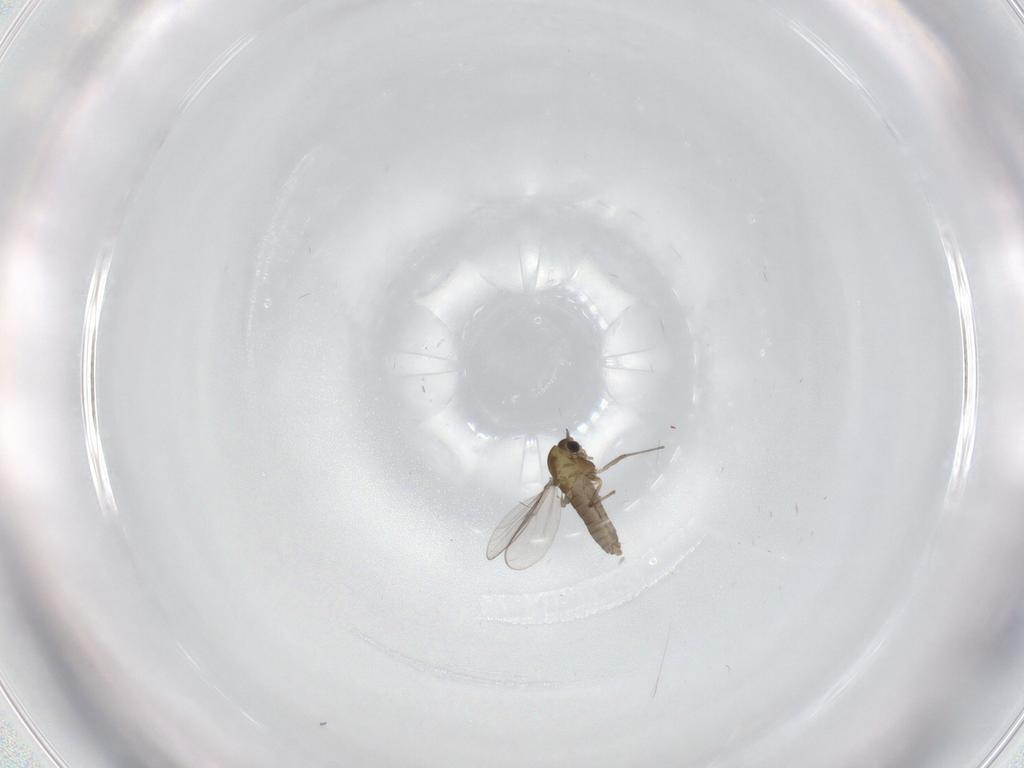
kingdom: Animalia
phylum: Arthropoda
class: Insecta
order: Diptera
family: Chironomidae
